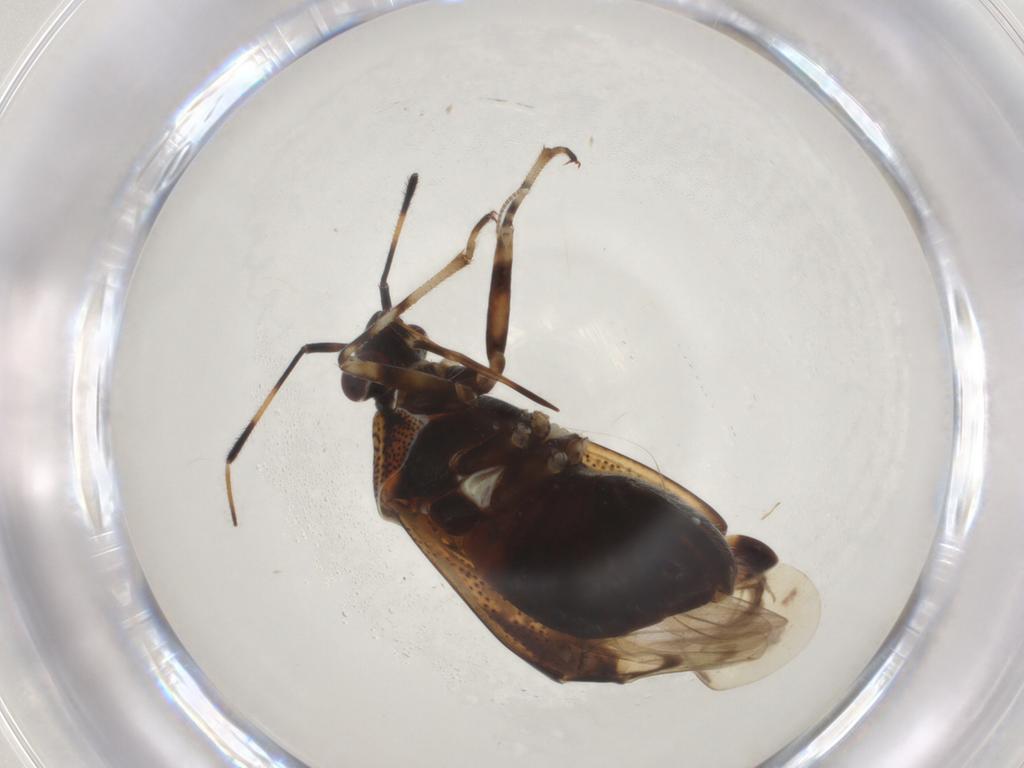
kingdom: Animalia
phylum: Arthropoda
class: Insecta
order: Hemiptera
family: Miridae
